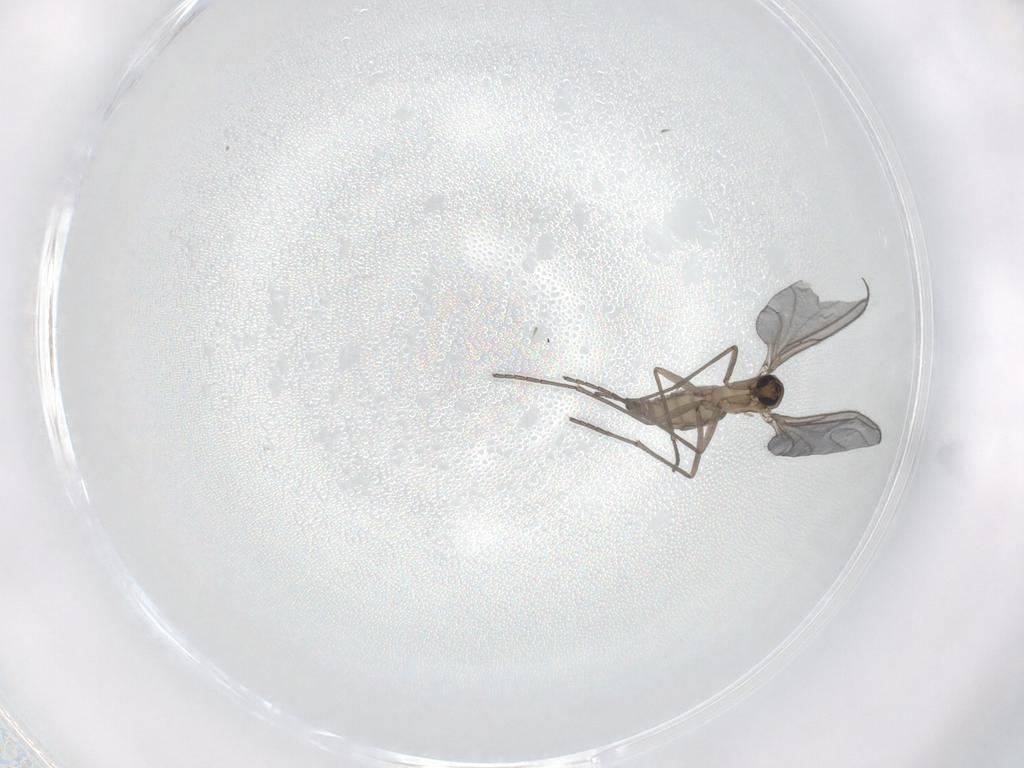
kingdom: Animalia
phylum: Arthropoda
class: Insecta
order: Diptera
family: Sciaridae
